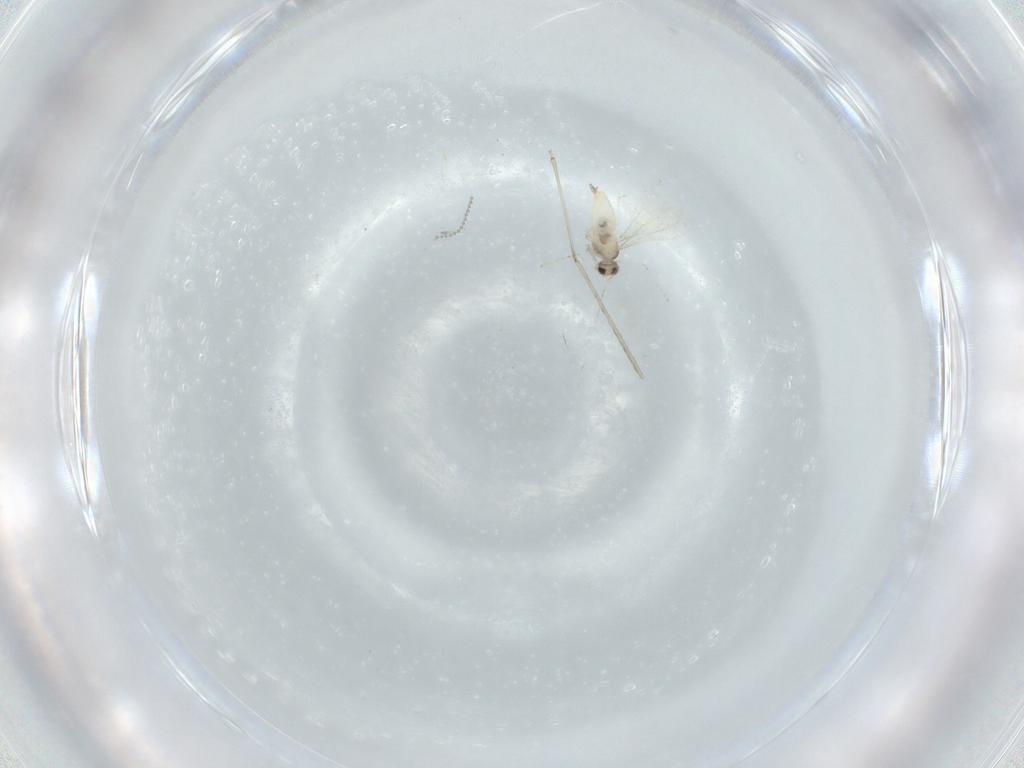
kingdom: Animalia
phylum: Arthropoda
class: Insecta
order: Diptera
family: Cecidomyiidae
